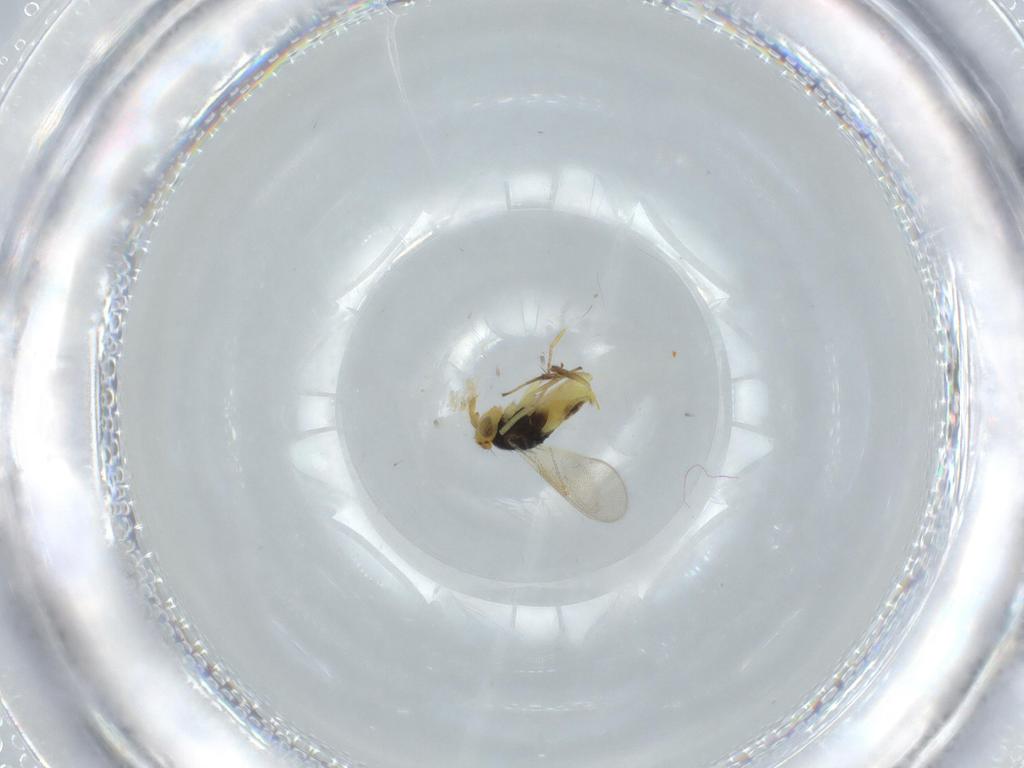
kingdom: Animalia
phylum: Arthropoda
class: Insecta
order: Hymenoptera
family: Aphelinidae
